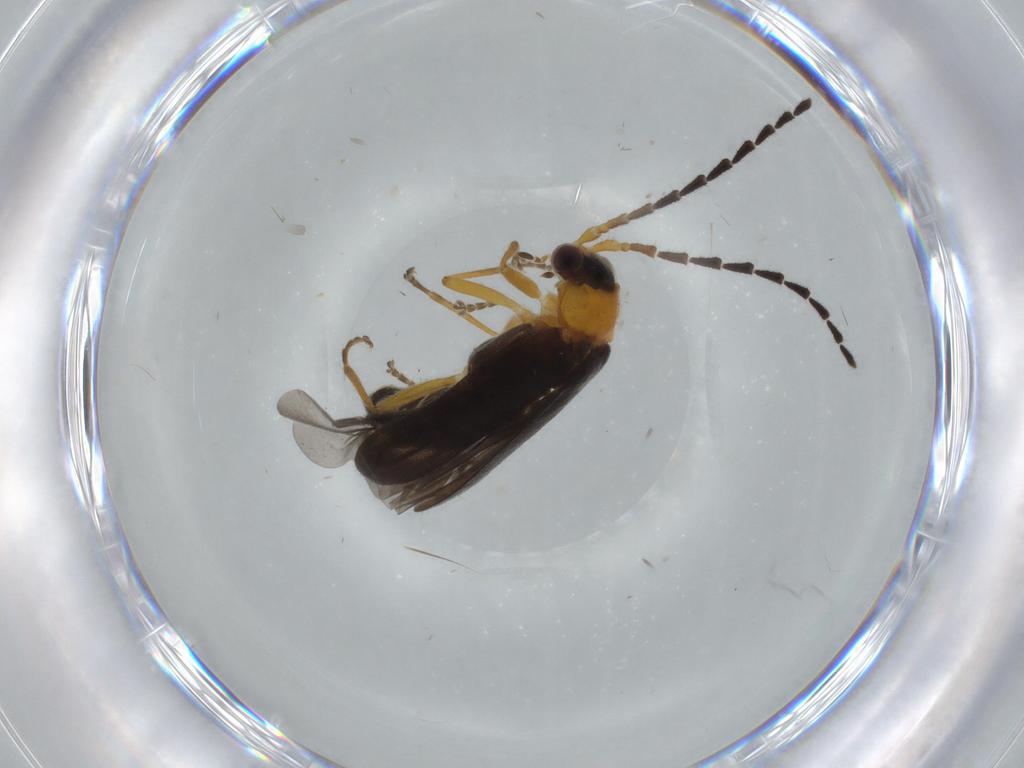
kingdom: Animalia
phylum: Arthropoda
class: Insecta
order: Coleoptera
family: Cantharidae
